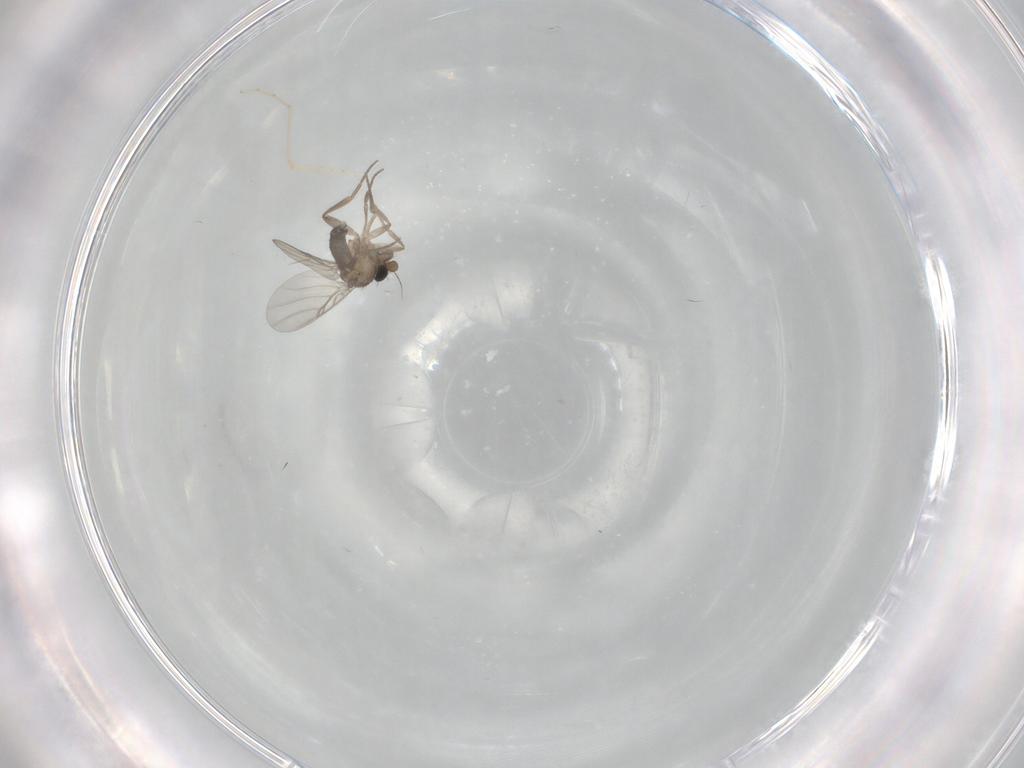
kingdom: Animalia
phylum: Arthropoda
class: Insecta
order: Diptera
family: Cecidomyiidae
